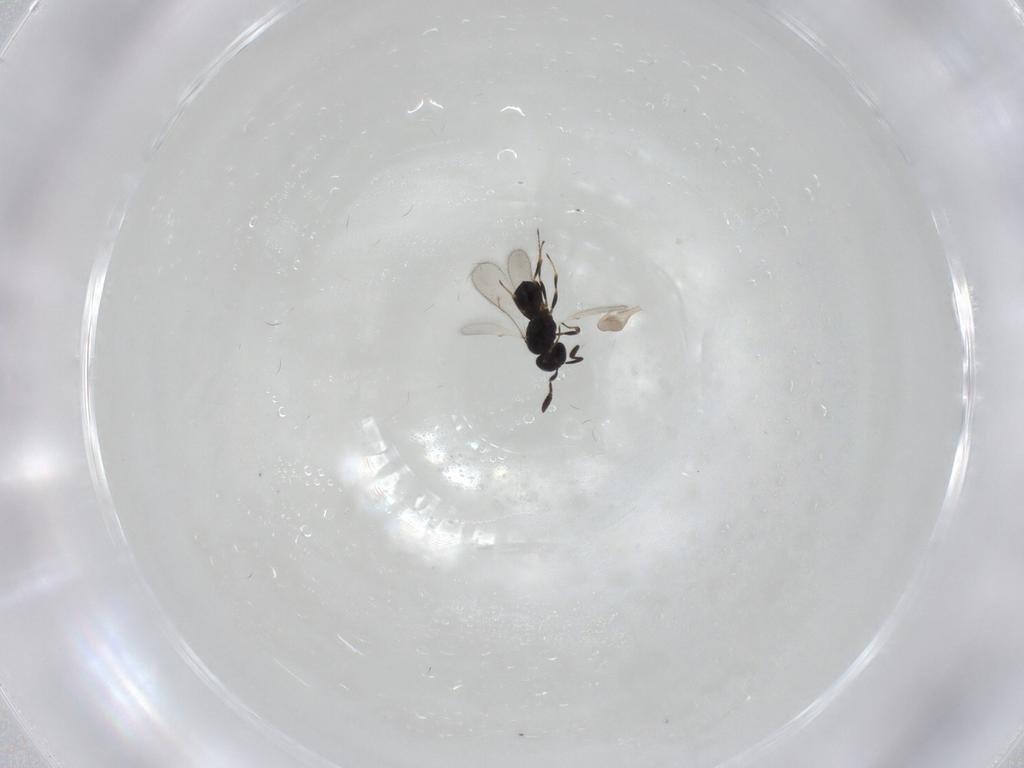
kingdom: Animalia
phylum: Arthropoda
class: Insecta
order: Hymenoptera
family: Scelionidae
